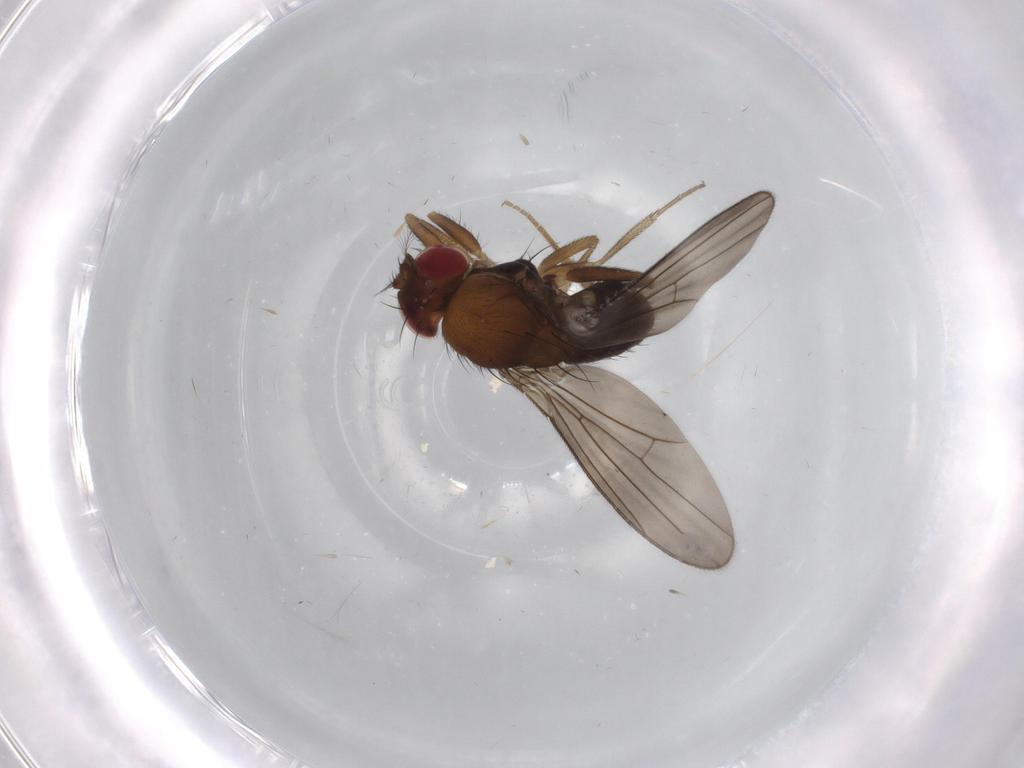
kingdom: Animalia
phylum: Arthropoda
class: Insecta
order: Diptera
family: Drosophilidae
